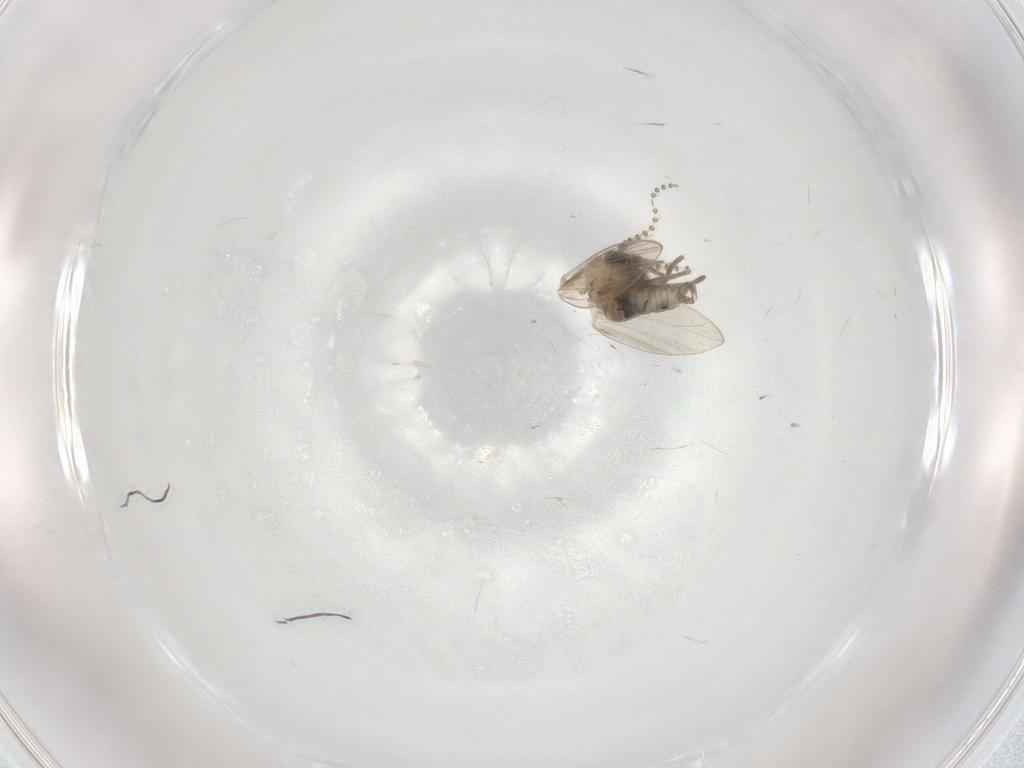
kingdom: Animalia
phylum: Arthropoda
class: Insecta
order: Diptera
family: Psychodidae
